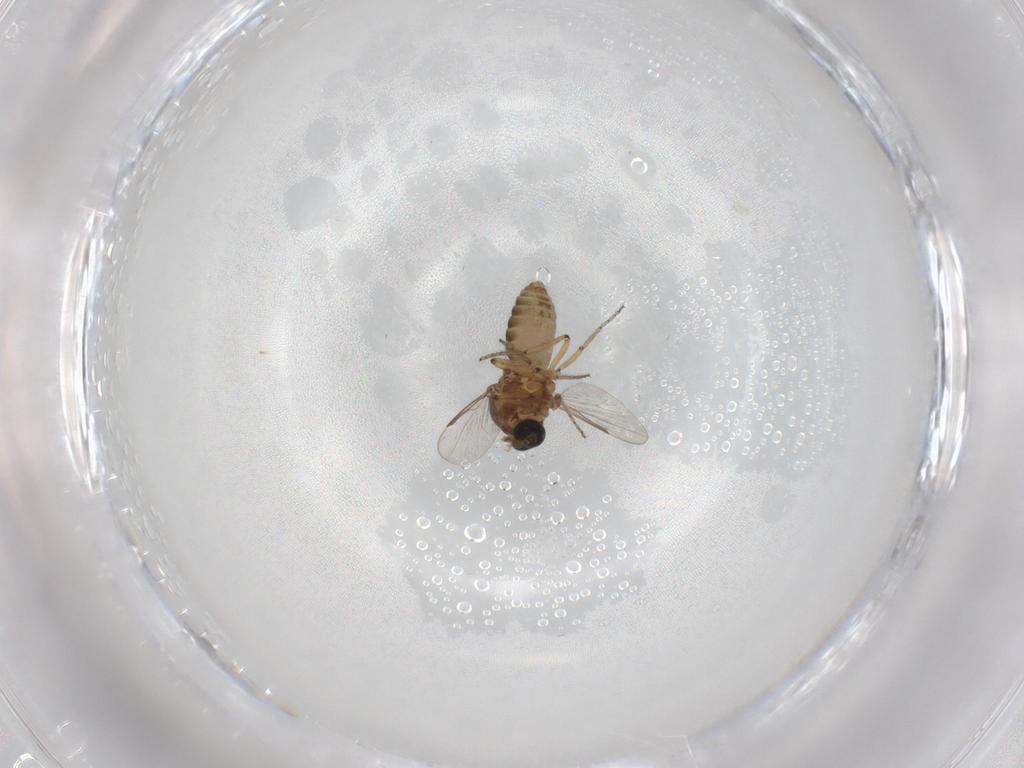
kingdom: Animalia
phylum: Arthropoda
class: Insecta
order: Diptera
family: Ceratopogonidae
